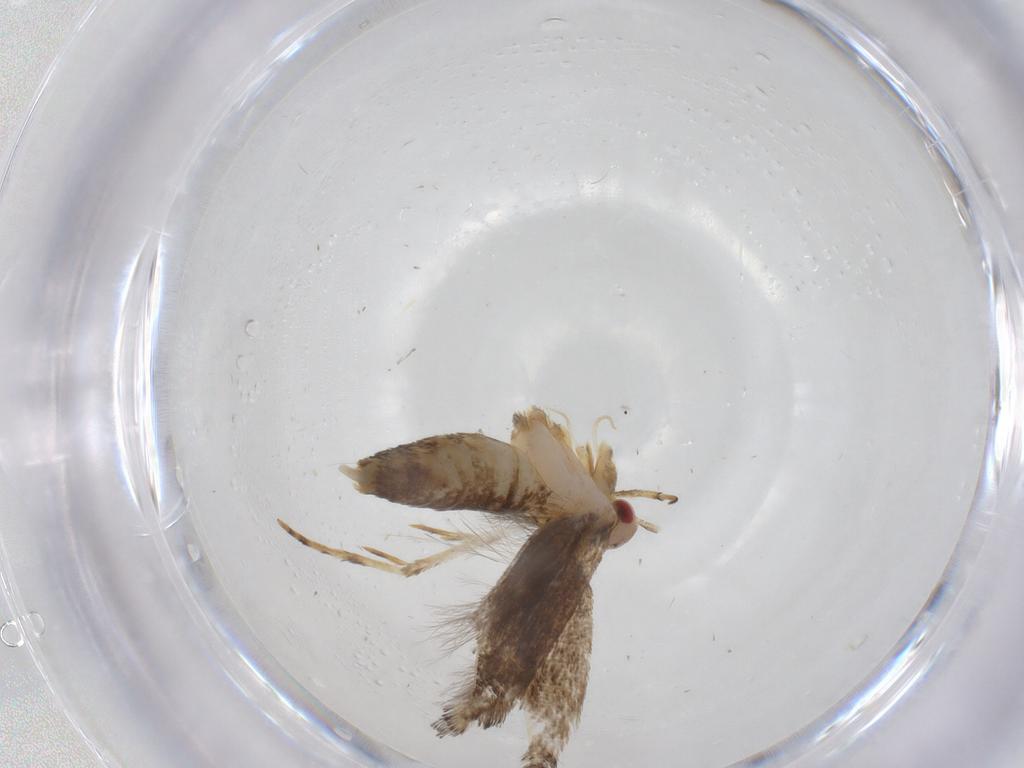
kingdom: Animalia
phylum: Arthropoda
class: Insecta
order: Lepidoptera
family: Cosmopterigidae
